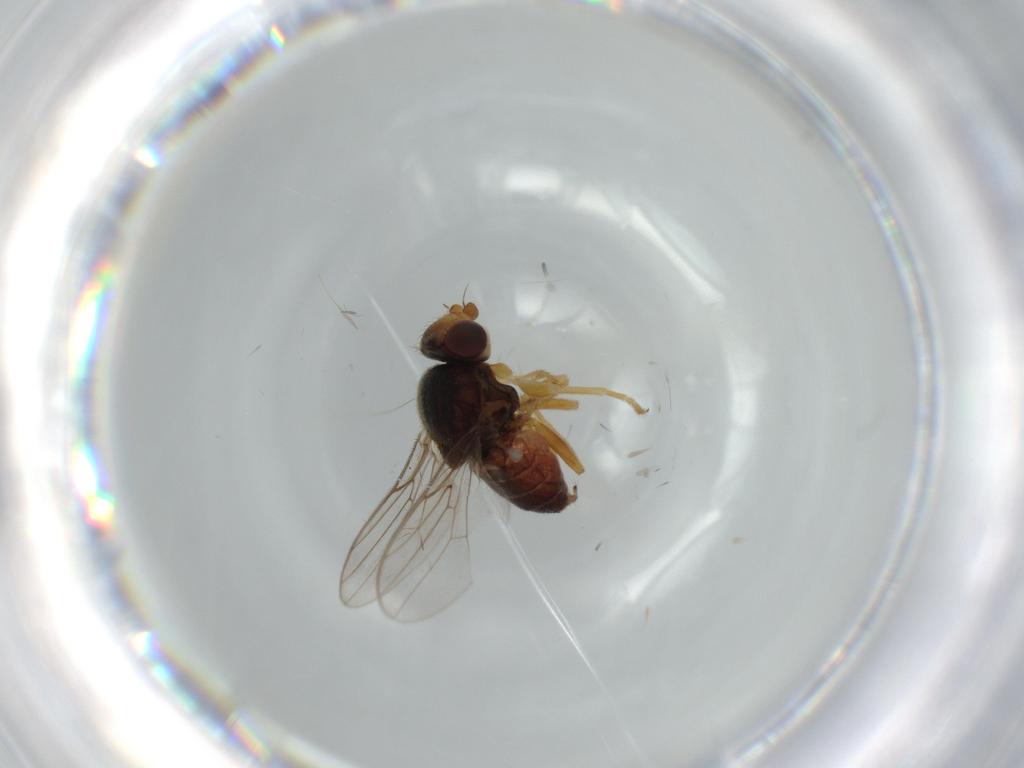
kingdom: Animalia
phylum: Arthropoda
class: Insecta
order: Diptera
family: Chloropidae
